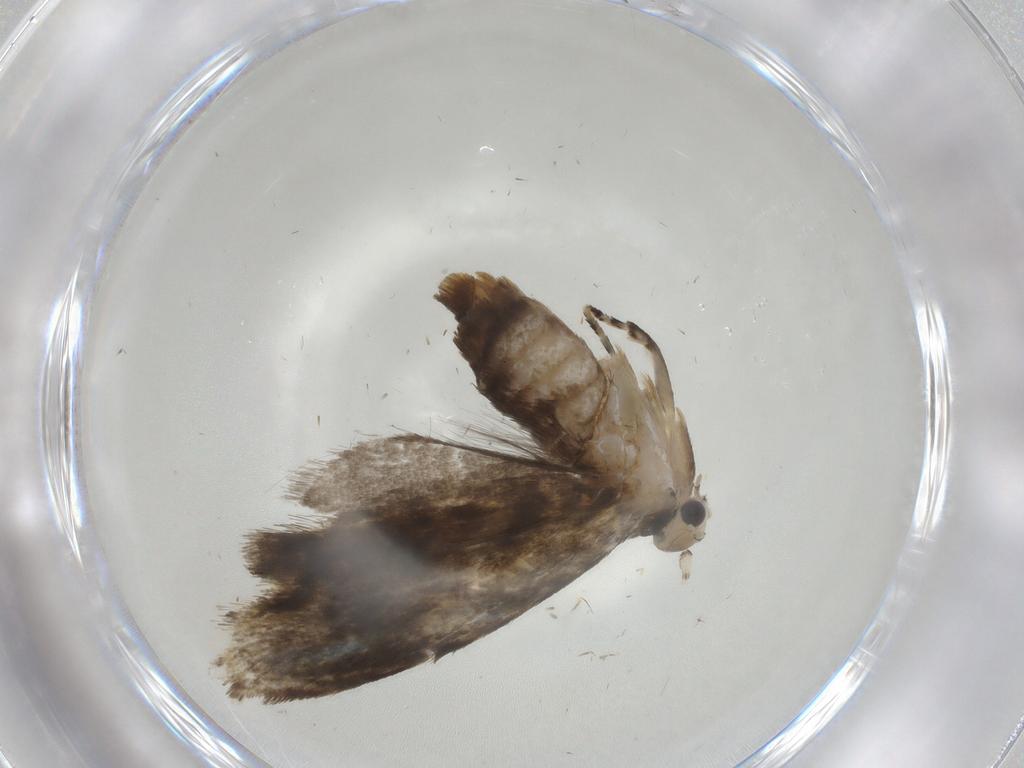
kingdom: Animalia
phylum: Arthropoda
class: Insecta
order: Lepidoptera
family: Tineidae
